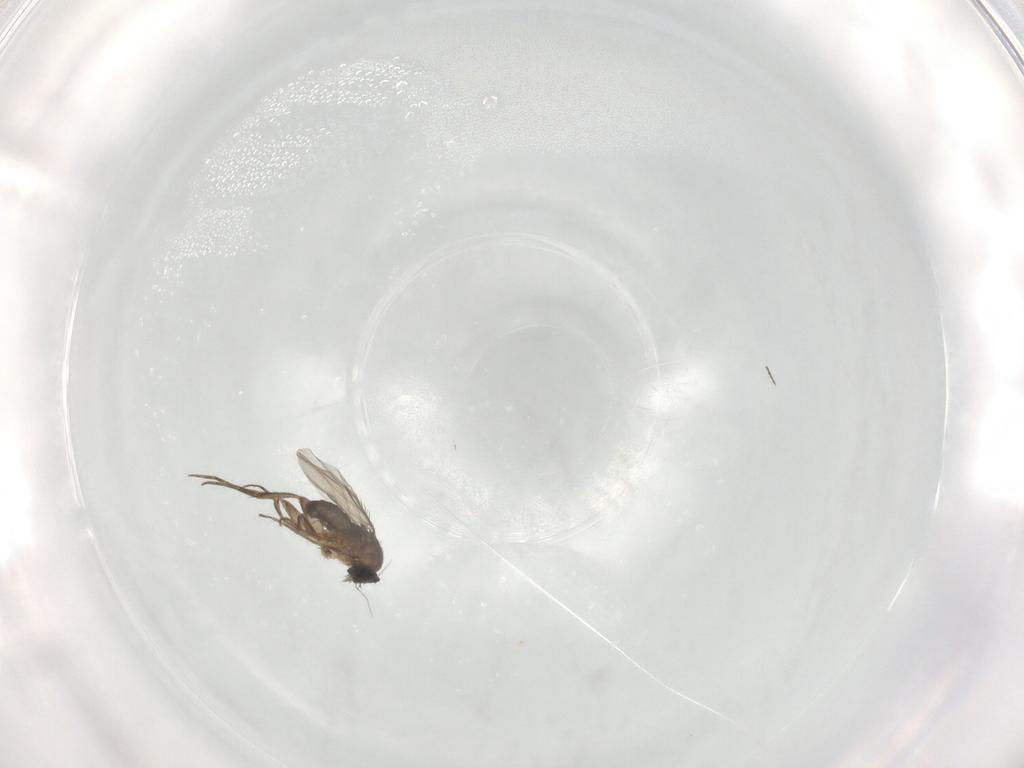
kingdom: Animalia
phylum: Arthropoda
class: Insecta
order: Diptera
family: Phoridae
